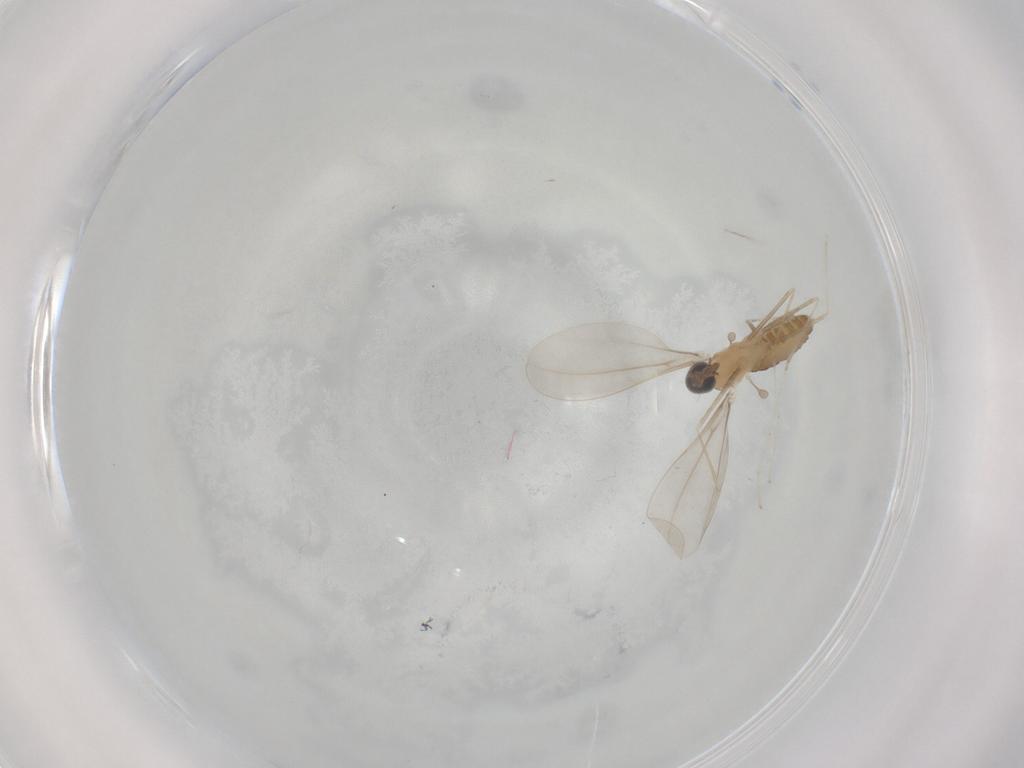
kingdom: Animalia
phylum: Arthropoda
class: Insecta
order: Diptera
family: Cecidomyiidae
